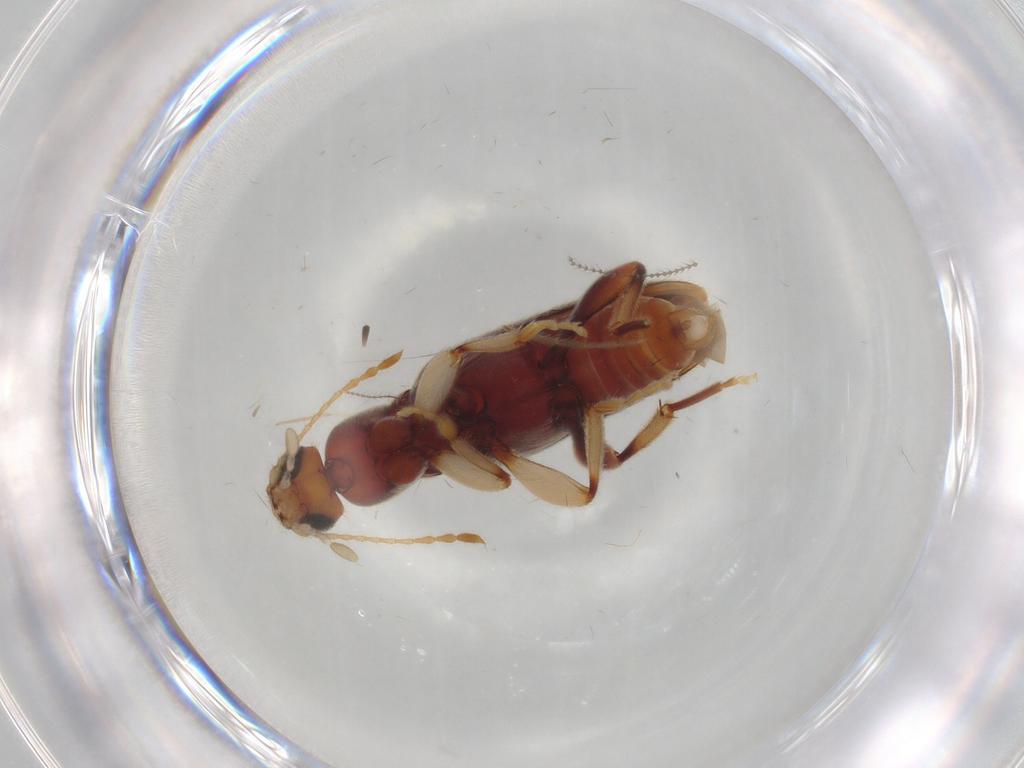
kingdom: Animalia
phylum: Arthropoda
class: Insecta
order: Coleoptera
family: Anthicidae
